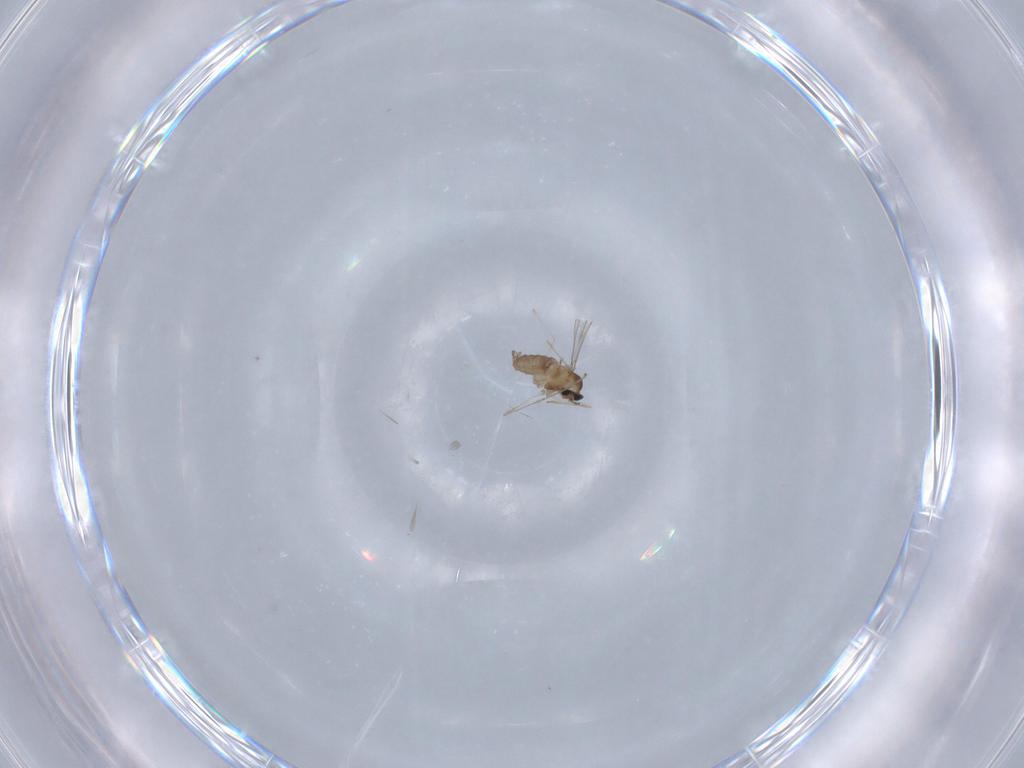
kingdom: Animalia
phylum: Arthropoda
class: Insecta
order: Diptera
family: Cecidomyiidae
